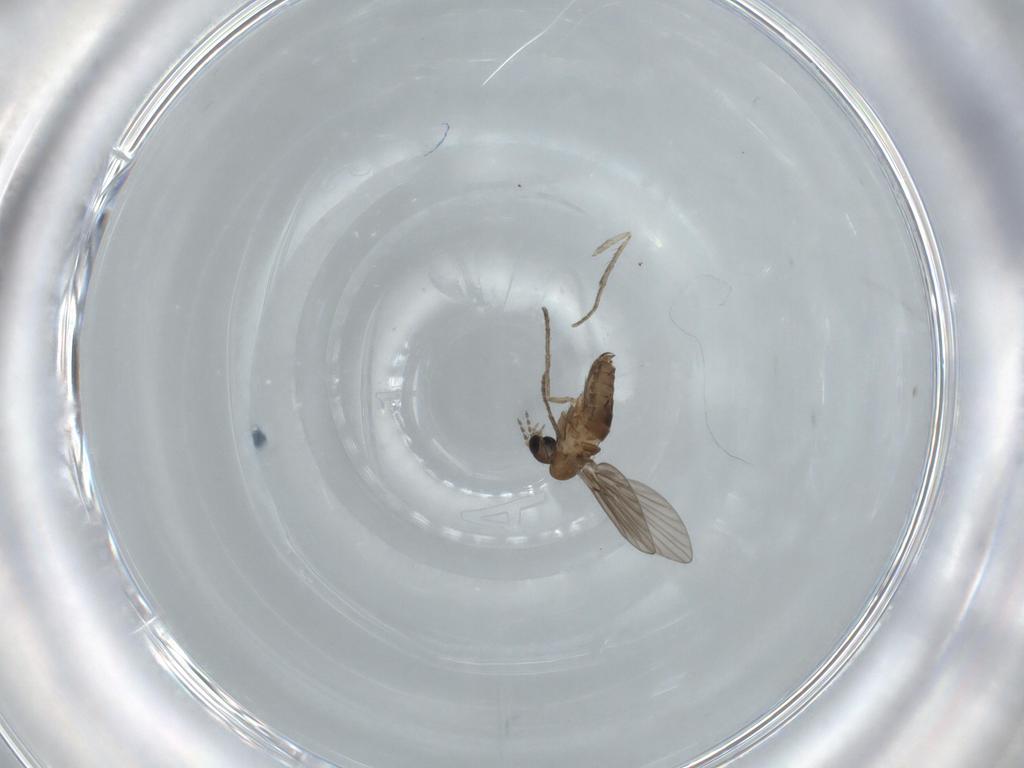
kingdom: Animalia
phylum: Arthropoda
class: Insecta
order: Diptera
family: Psychodidae
